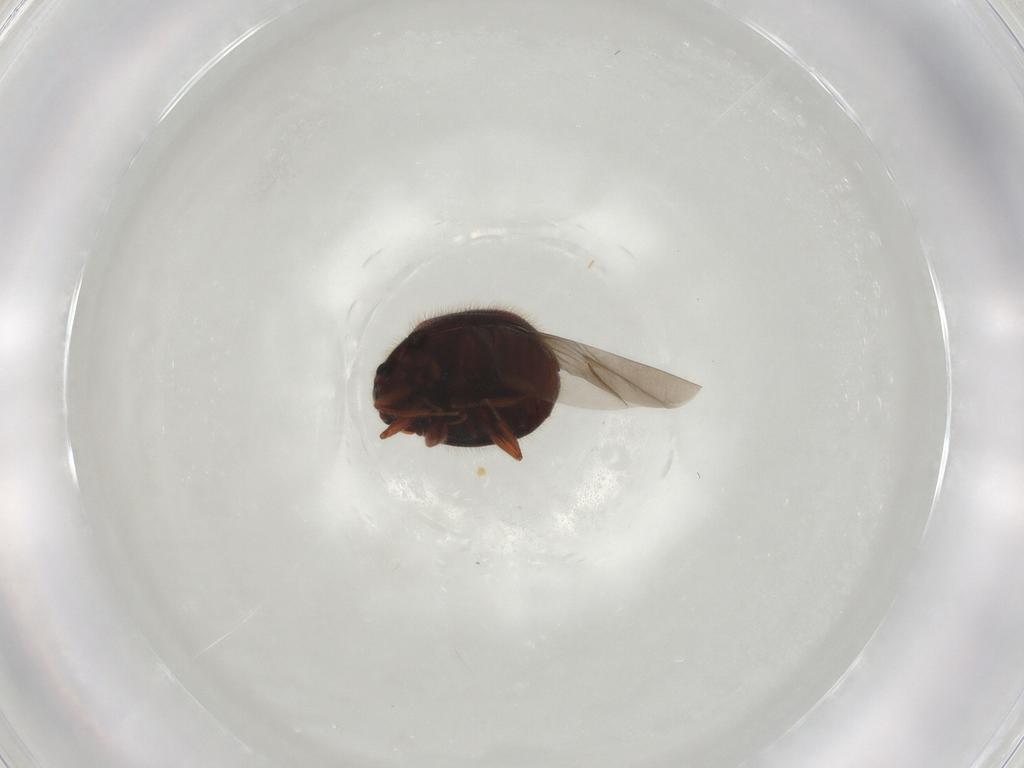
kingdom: Animalia
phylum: Arthropoda
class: Insecta
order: Coleoptera
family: Sphindidae
